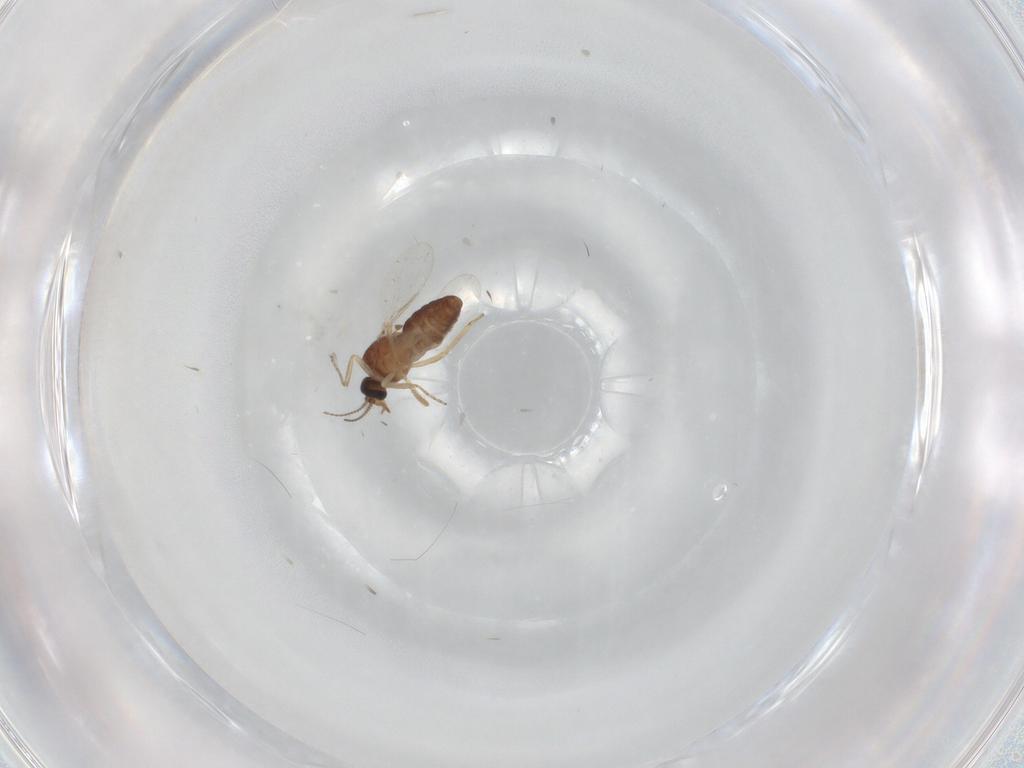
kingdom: Animalia
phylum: Arthropoda
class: Insecta
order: Diptera
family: Ceratopogonidae
